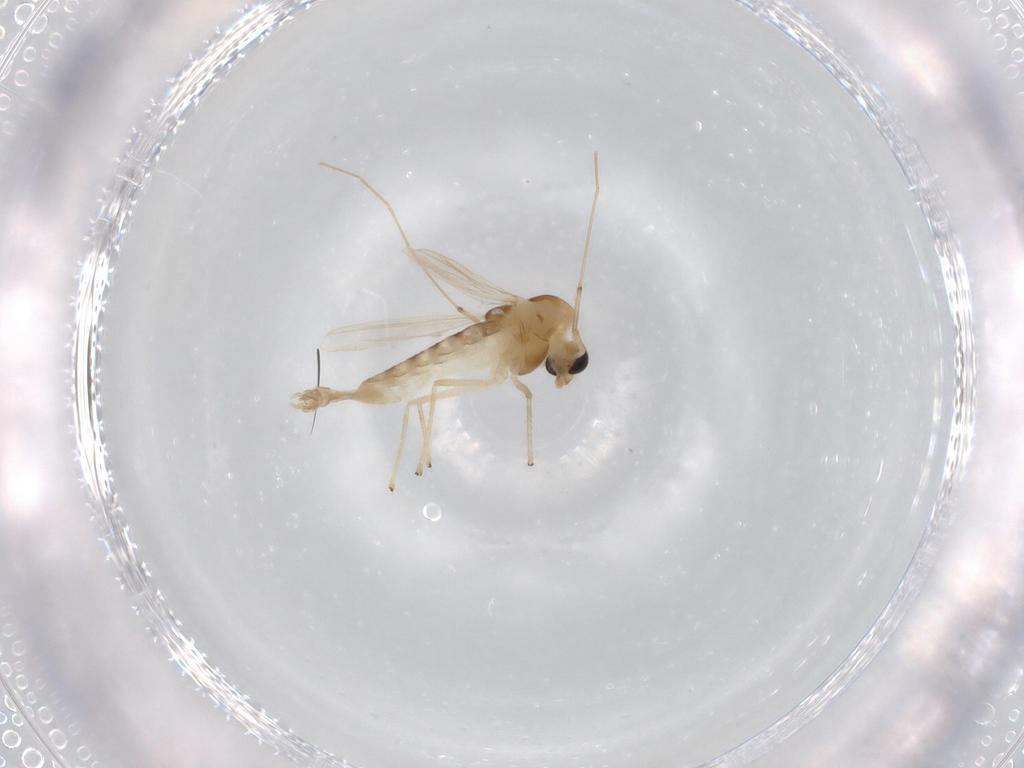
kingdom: Animalia
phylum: Arthropoda
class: Insecta
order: Diptera
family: Chironomidae
